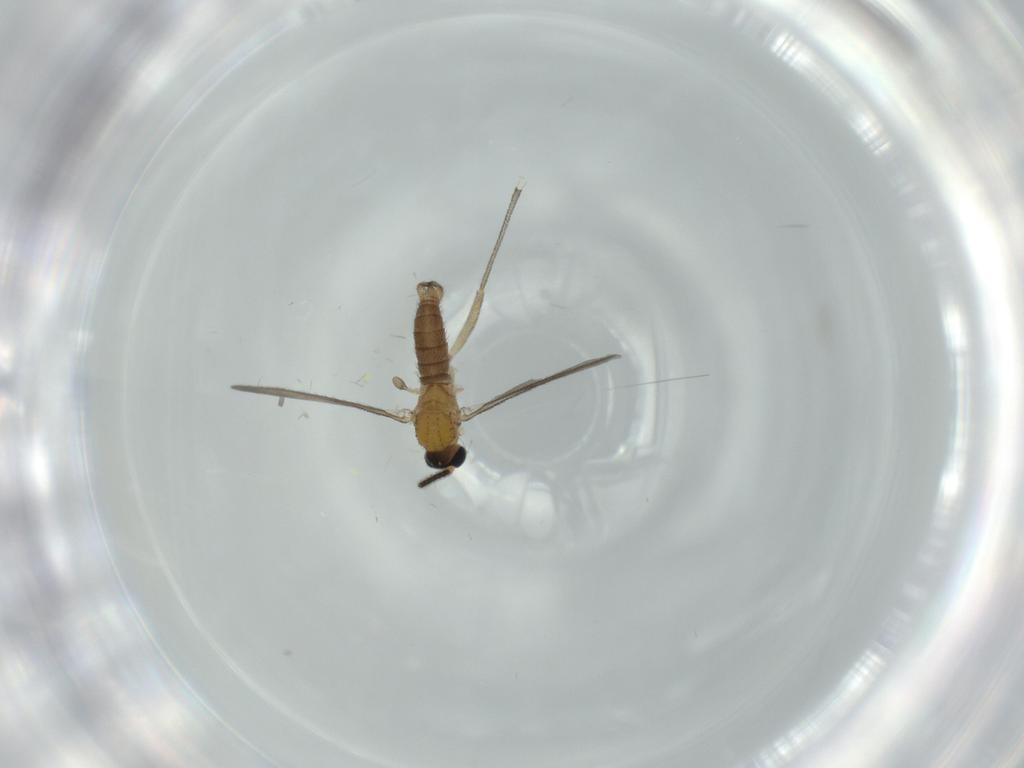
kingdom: Animalia
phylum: Arthropoda
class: Insecta
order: Diptera
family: Sciaridae
